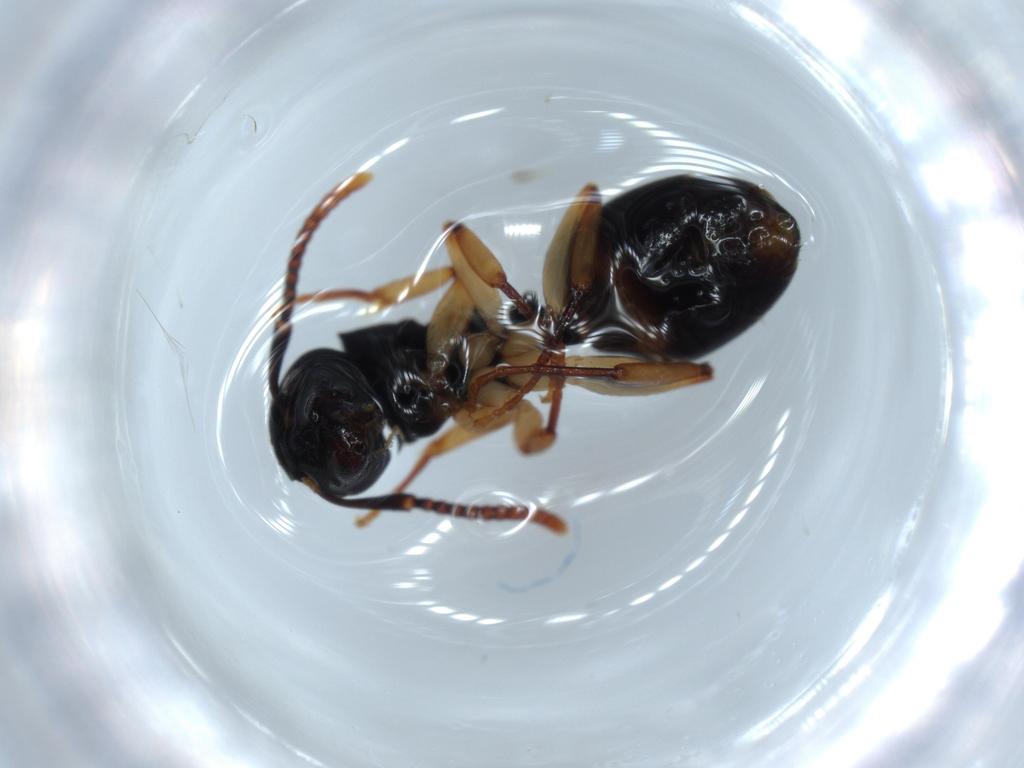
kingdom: Animalia
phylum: Arthropoda
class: Insecta
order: Hymenoptera
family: Formicidae
